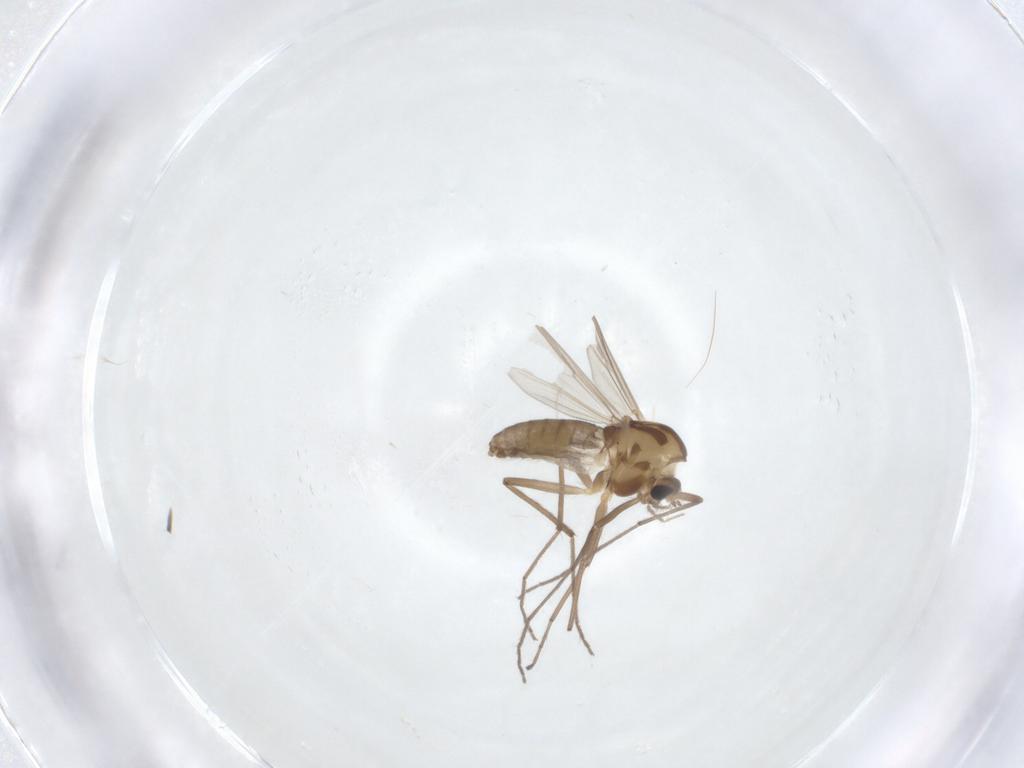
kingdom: Animalia
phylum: Arthropoda
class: Insecta
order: Diptera
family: Chironomidae
